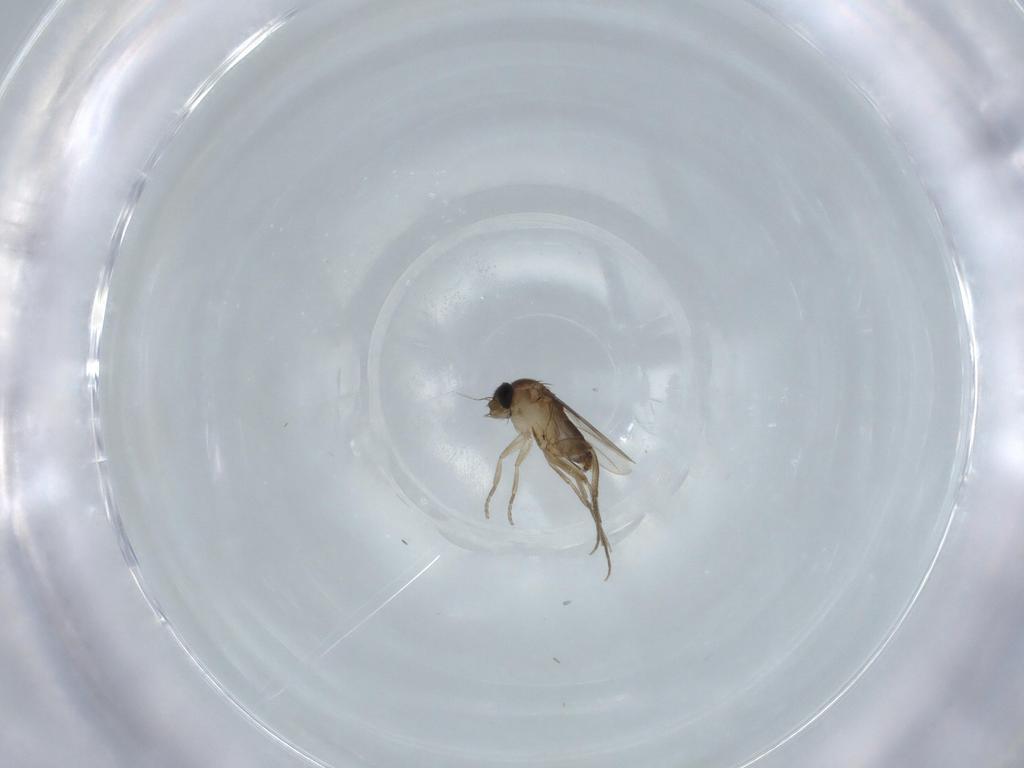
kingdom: Animalia
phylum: Arthropoda
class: Insecta
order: Diptera
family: Phoridae
